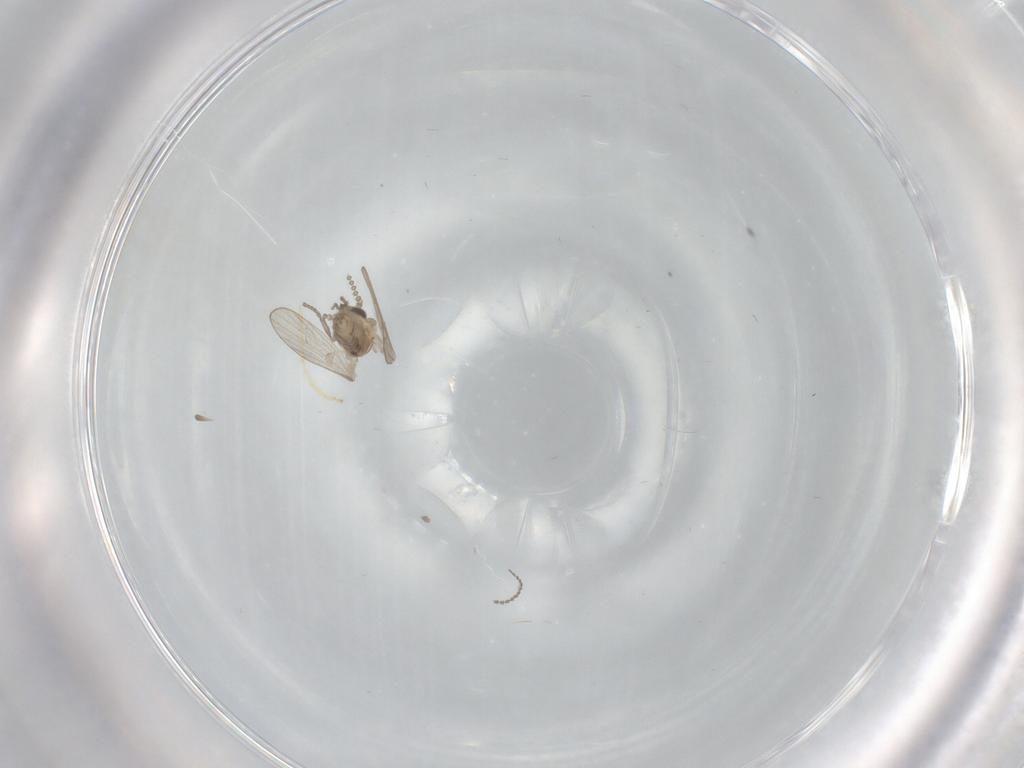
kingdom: Animalia
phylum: Arthropoda
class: Insecta
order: Diptera
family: Psychodidae
